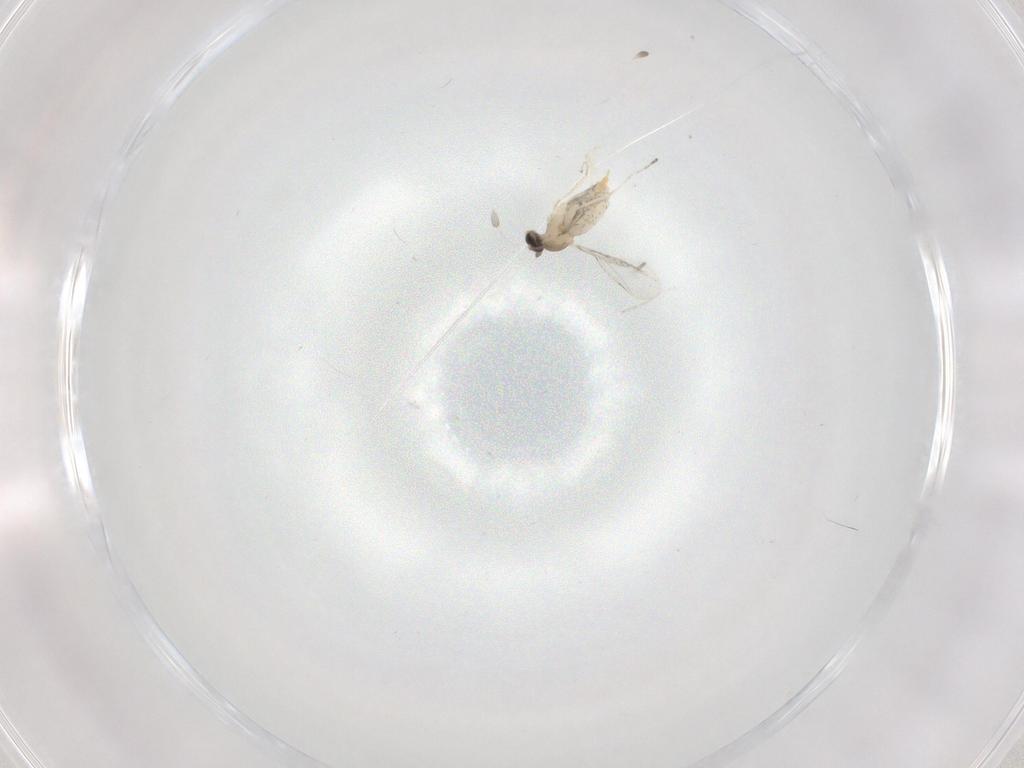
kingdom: Animalia
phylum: Arthropoda
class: Insecta
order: Diptera
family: Cecidomyiidae
